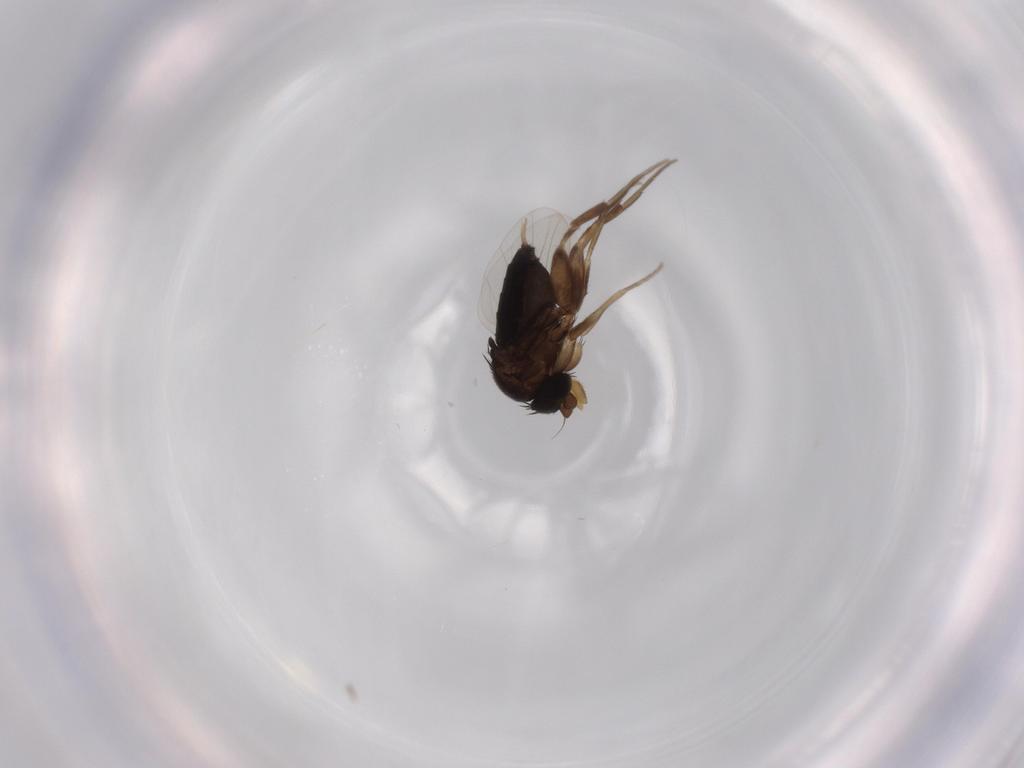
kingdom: Animalia
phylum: Arthropoda
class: Insecta
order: Diptera
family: Phoridae
